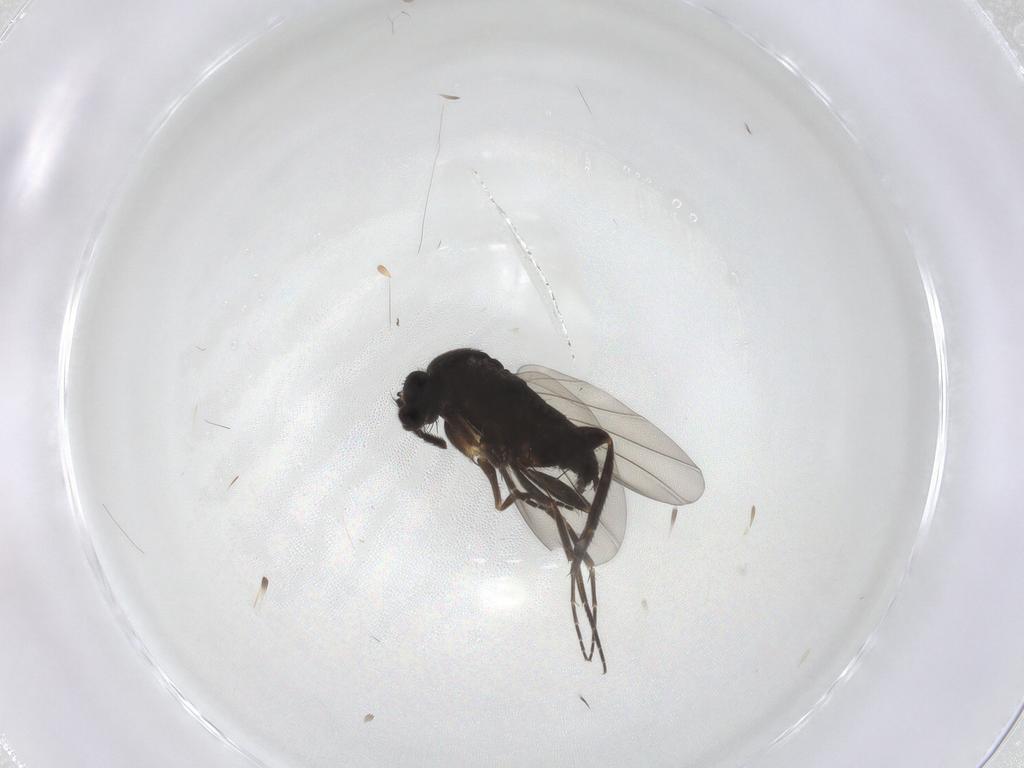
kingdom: Animalia
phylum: Arthropoda
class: Insecta
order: Diptera
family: Phoridae
